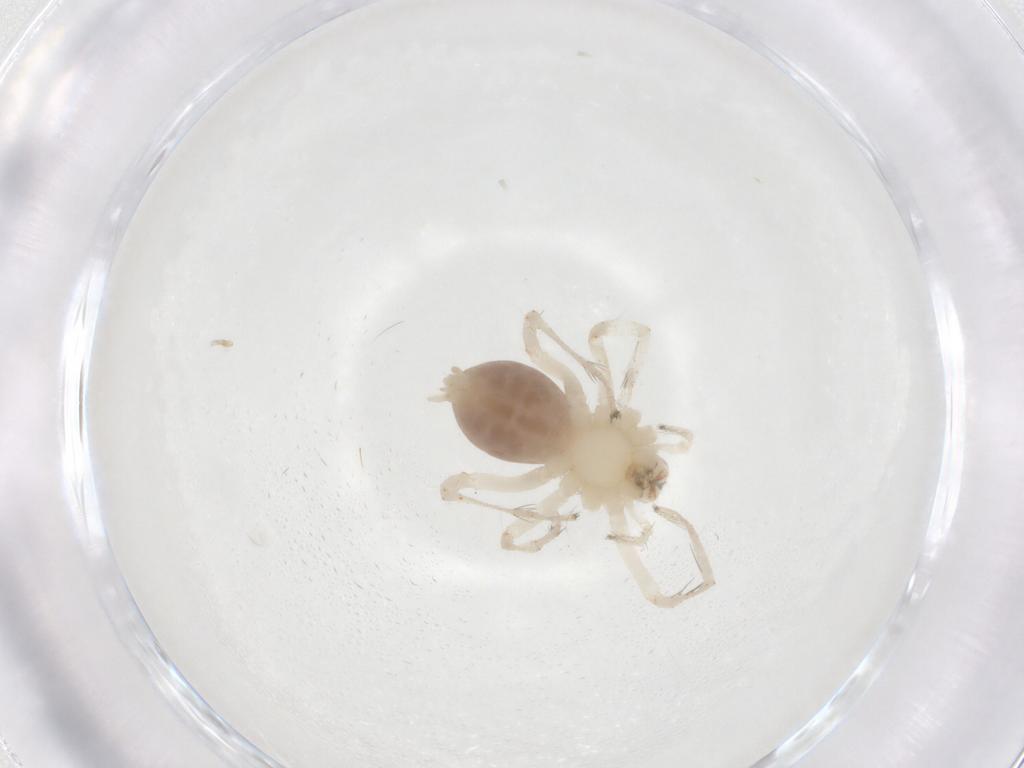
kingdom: Animalia
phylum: Arthropoda
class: Arachnida
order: Araneae
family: Anyphaenidae
